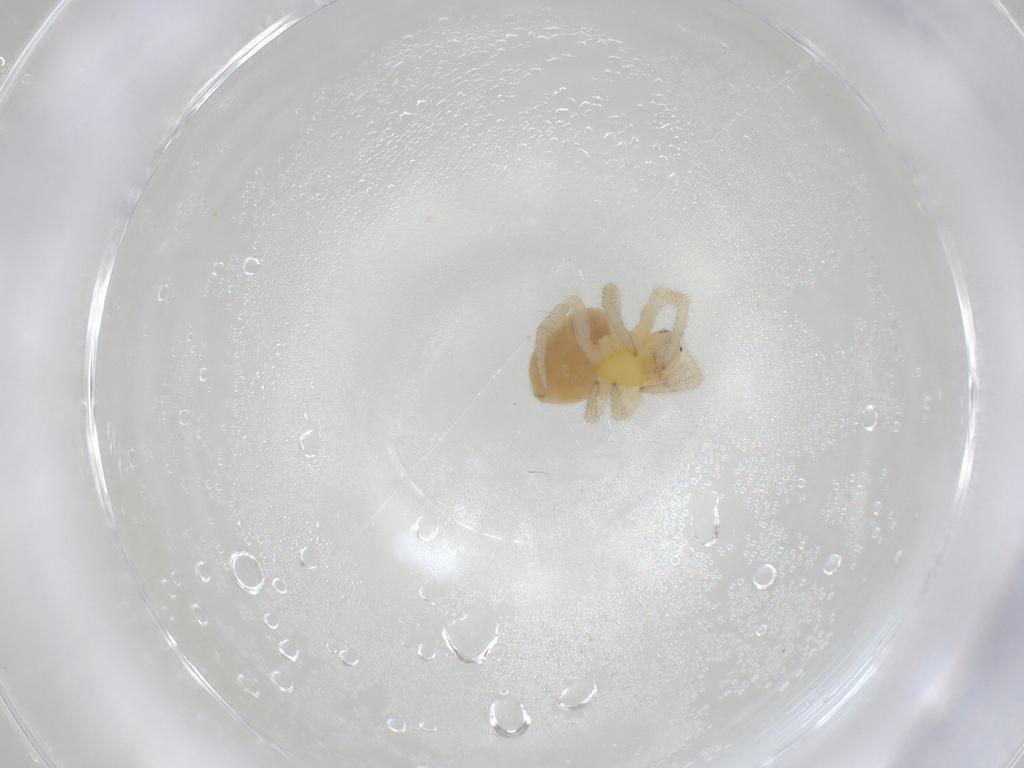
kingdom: Animalia
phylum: Arthropoda
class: Arachnida
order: Araneae
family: Theridiidae
